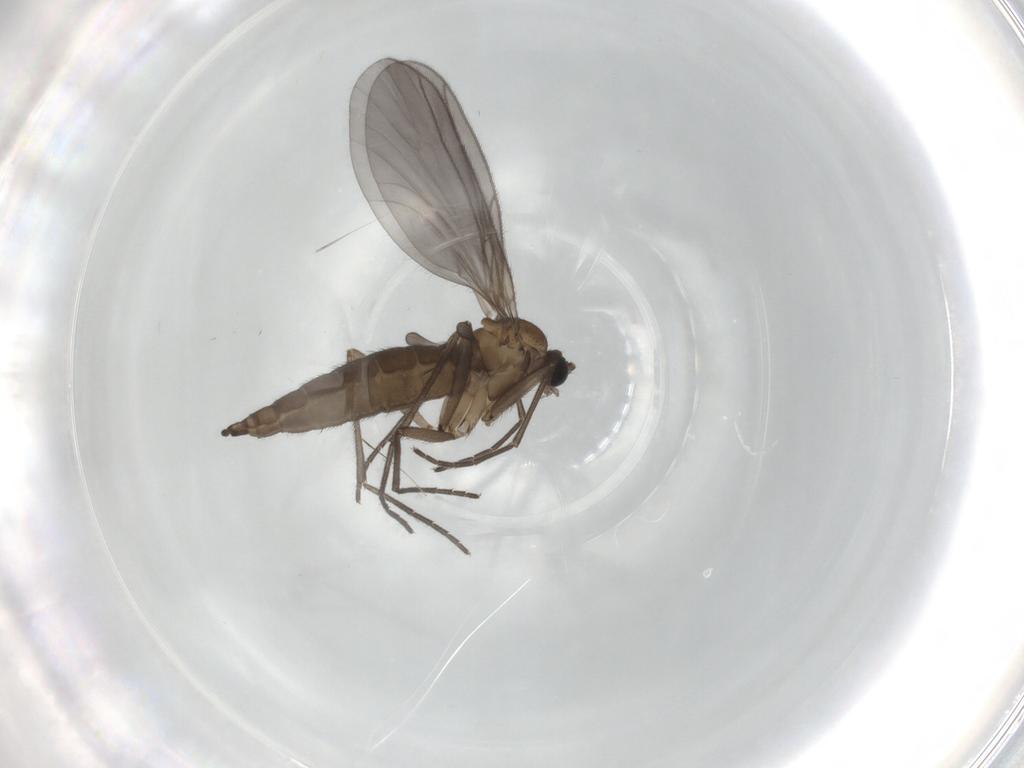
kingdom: Animalia
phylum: Arthropoda
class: Insecta
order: Diptera
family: Sciaridae
